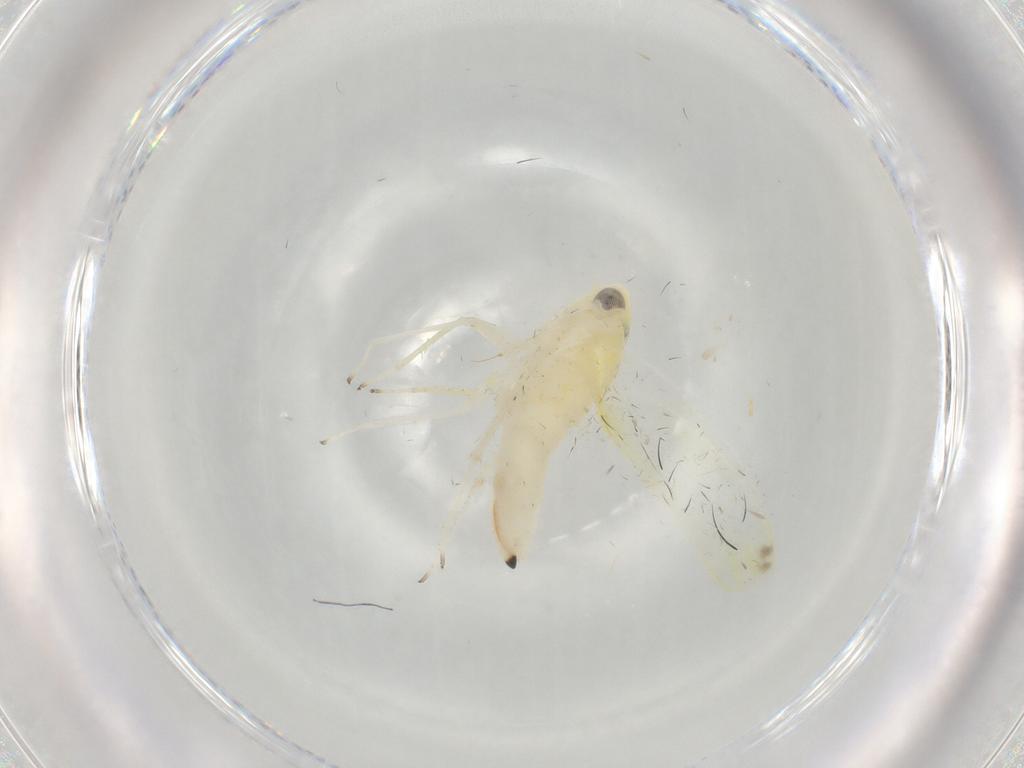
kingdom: Animalia
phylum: Arthropoda
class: Insecta
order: Hemiptera
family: Cicadellidae
